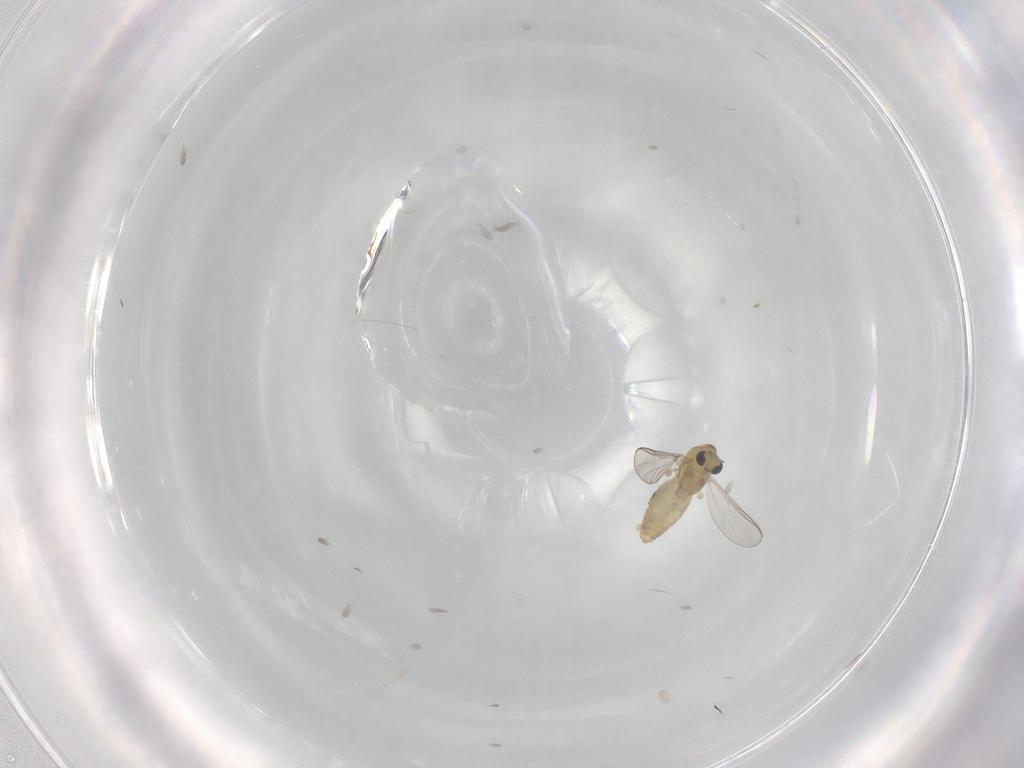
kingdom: Animalia
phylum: Arthropoda
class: Insecta
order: Diptera
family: Chironomidae
